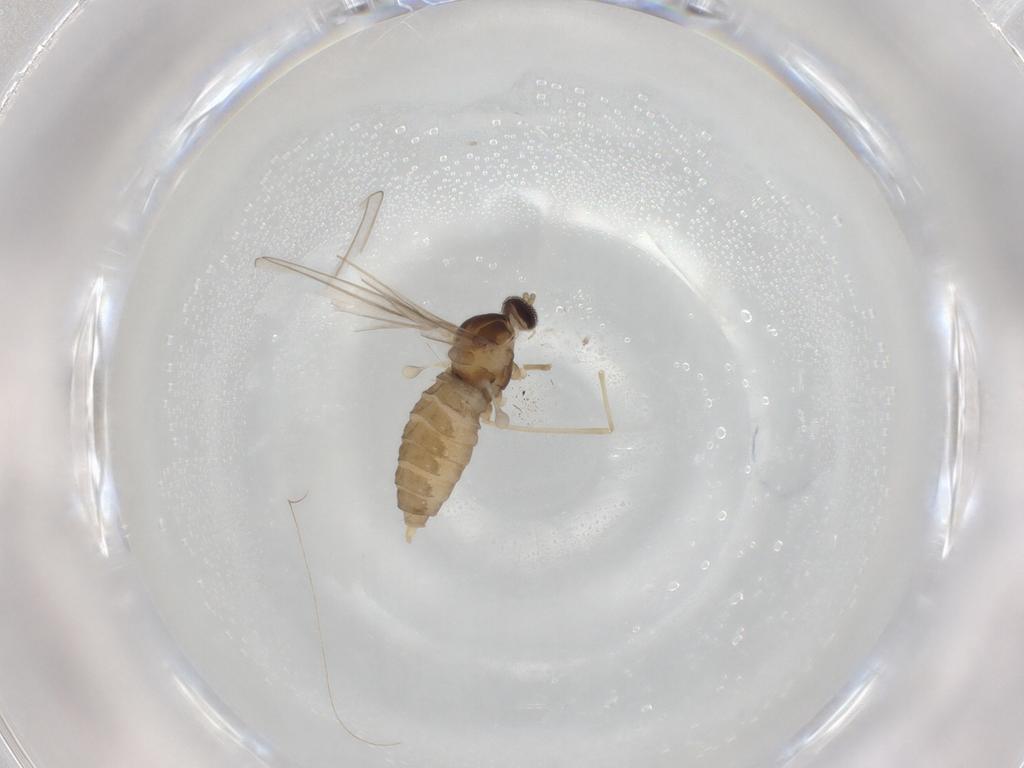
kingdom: Animalia
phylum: Arthropoda
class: Insecta
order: Diptera
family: Cecidomyiidae
